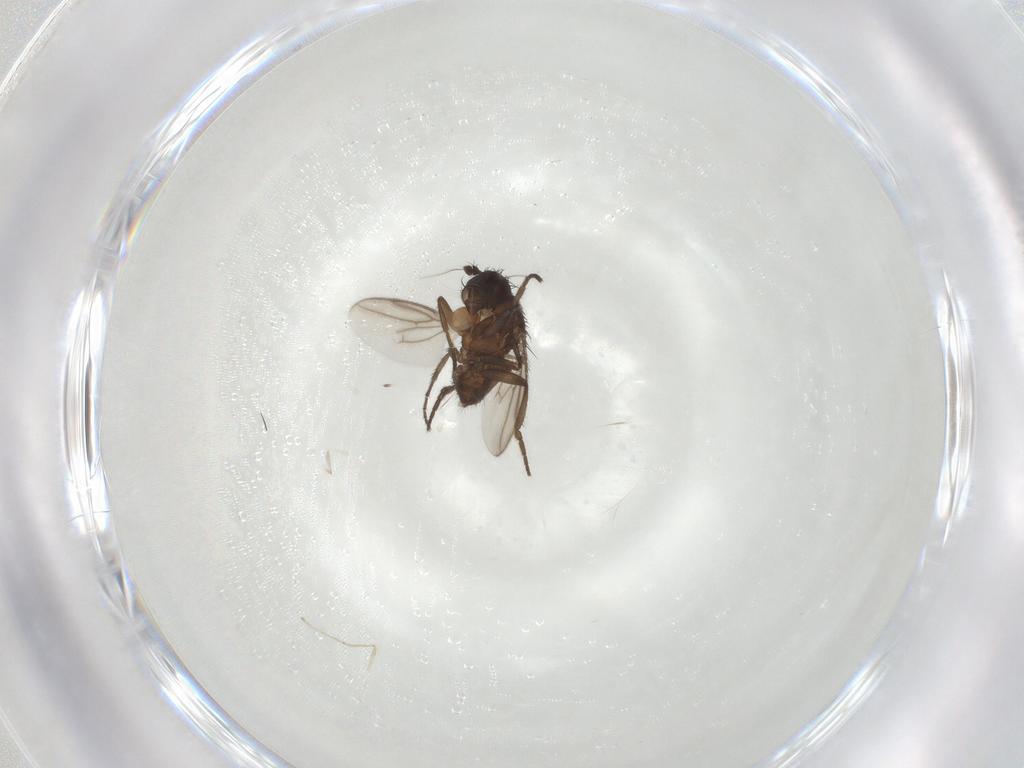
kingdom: Animalia
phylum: Arthropoda
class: Insecta
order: Diptera
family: Sphaeroceridae
